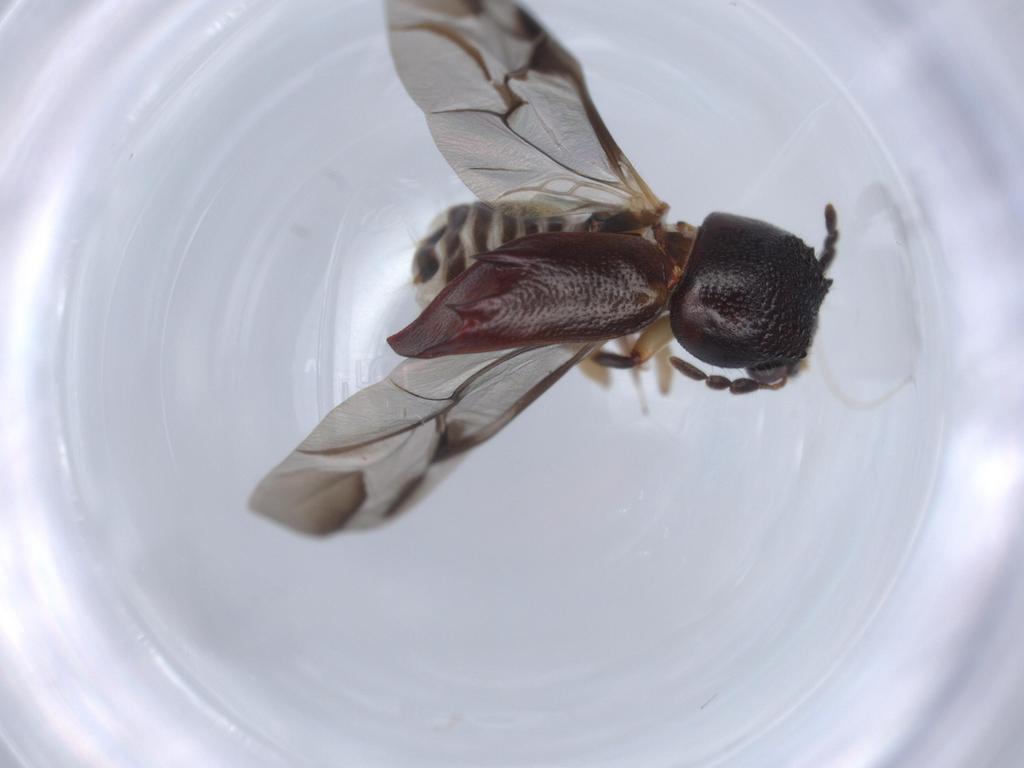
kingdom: Animalia
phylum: Arthropoda
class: Insecta
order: Coleoptera
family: Bostrichidae
